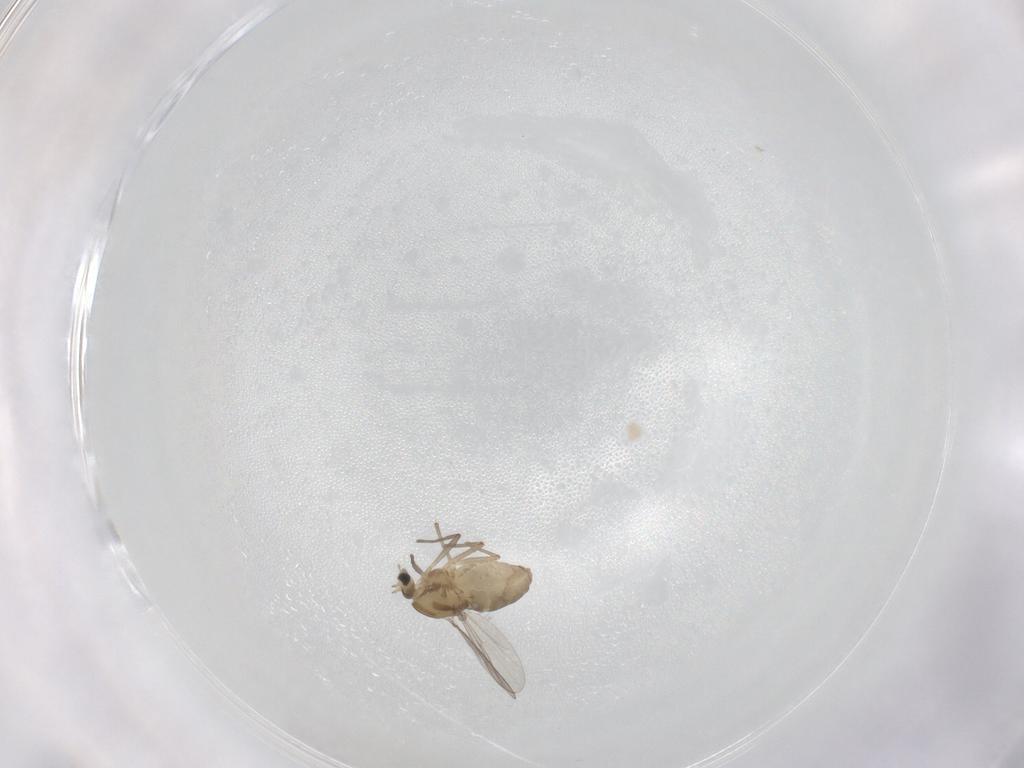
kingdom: Animalia
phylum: Arthropoda
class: Insecta
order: Diptera
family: Chironomidae
